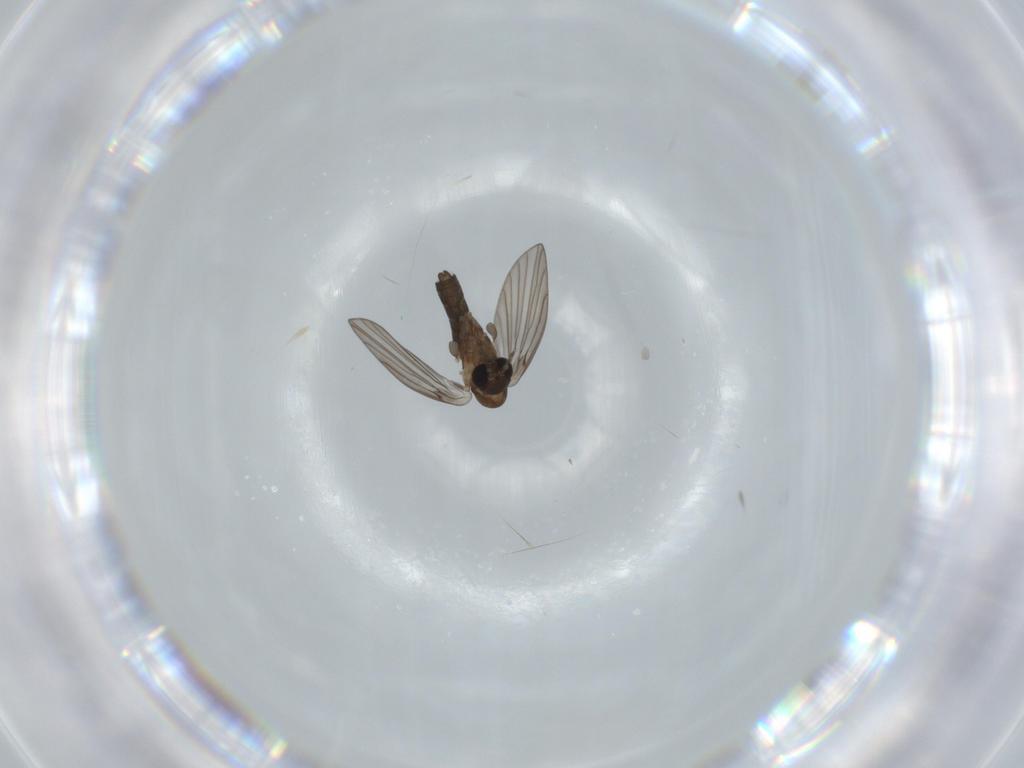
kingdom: Animalia
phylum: Arthropoda
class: Insecta
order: Diptera
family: Psychodidae
